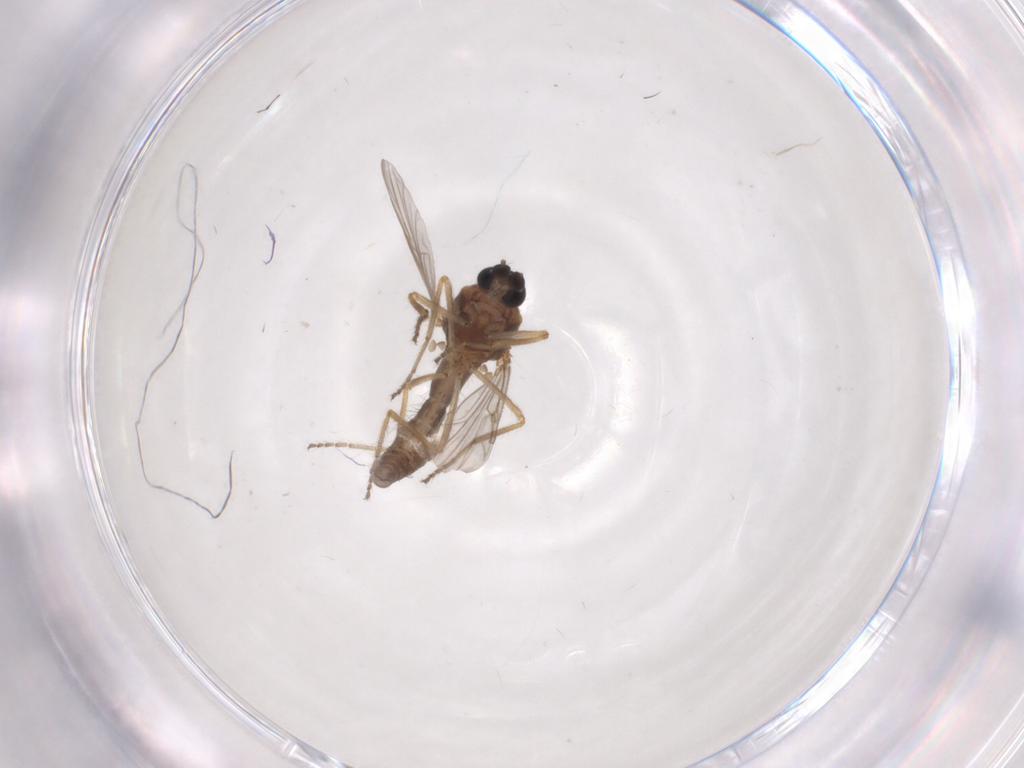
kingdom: Animalia
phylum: Arthropoda
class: Insecta
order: Diptera
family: Ceratopogonidae
